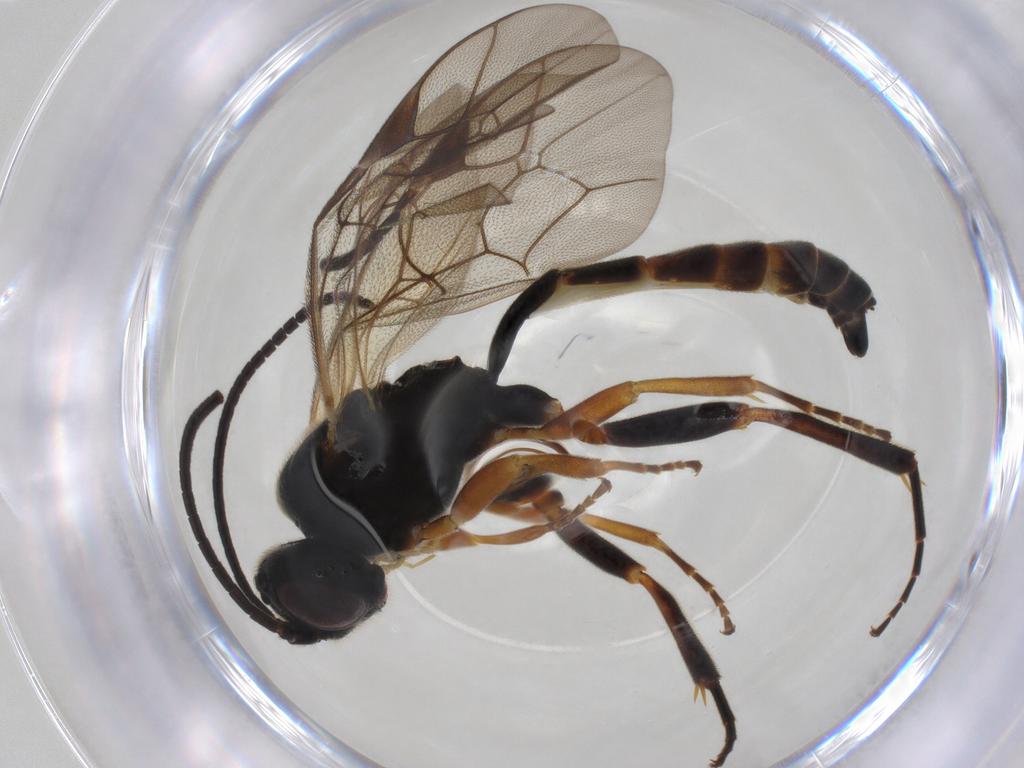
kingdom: Animalia
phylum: Arthropoda
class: Insecta
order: Hymenoptera
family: Ichneumonidae
